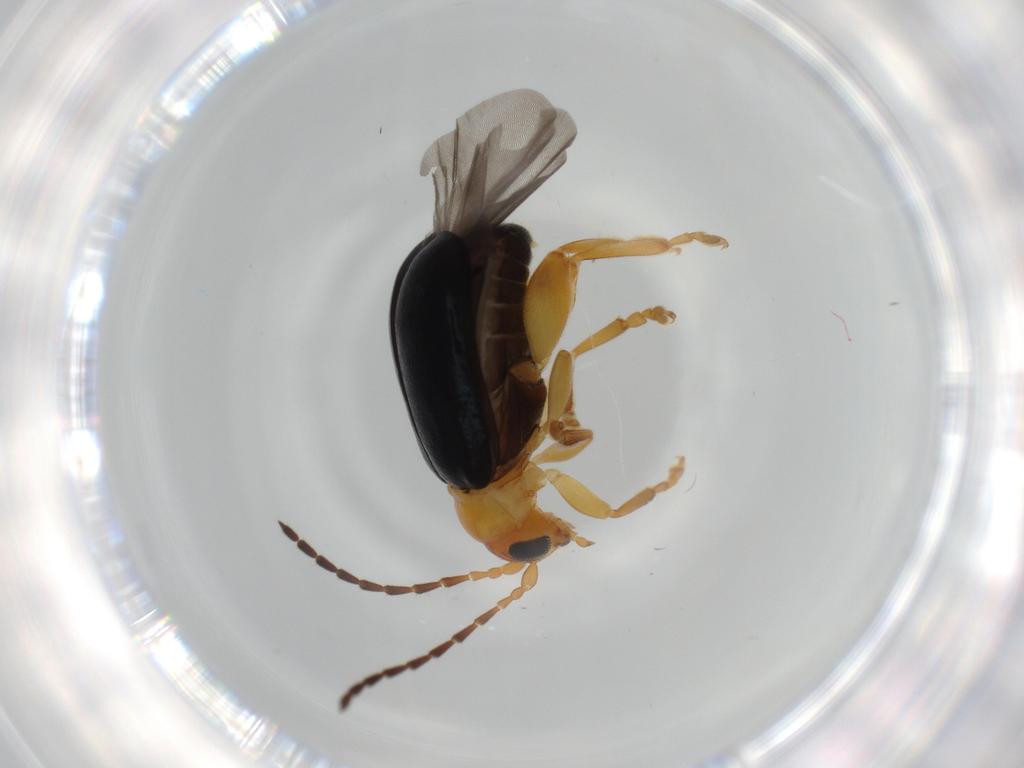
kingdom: Animalia
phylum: Arthropoda
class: Insecta
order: Coleoptera
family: Chrysomelidae
